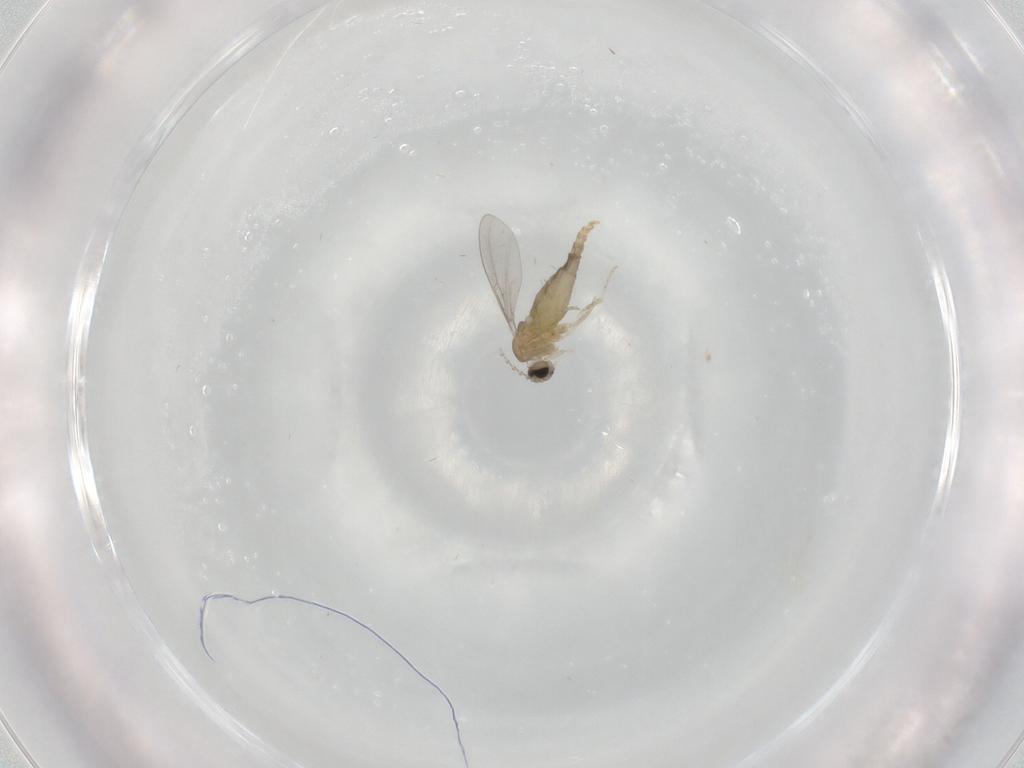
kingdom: Animalia
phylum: Arthropoda
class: Insecta
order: Diptera
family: Cecidomyiidae
